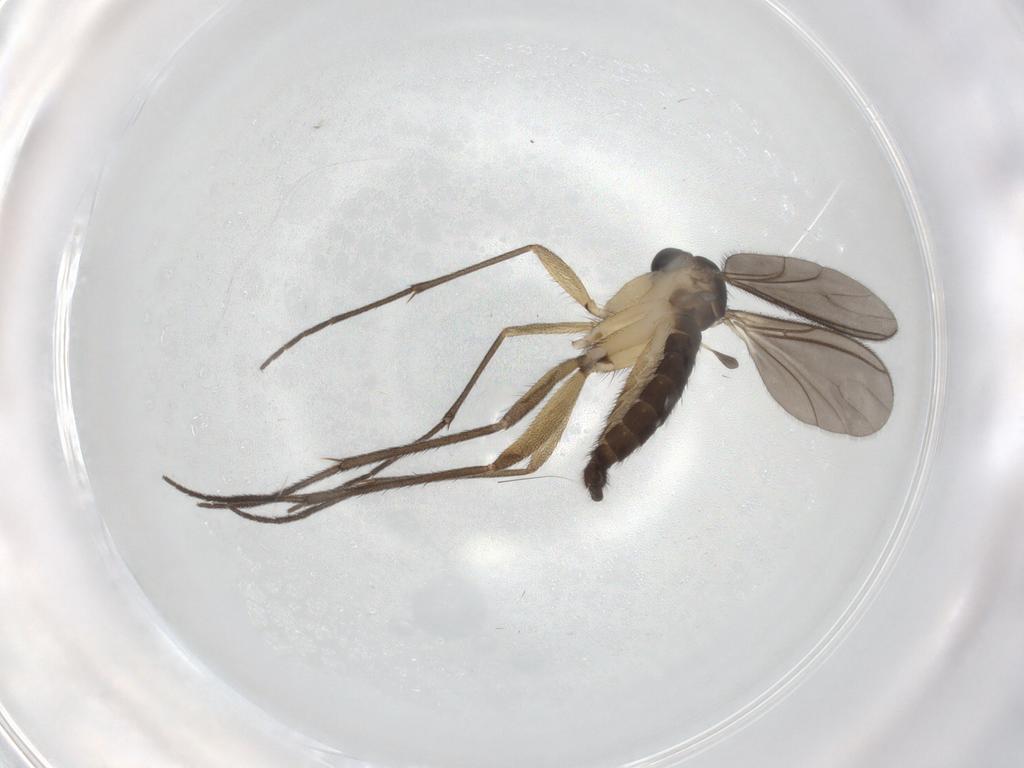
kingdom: Animalia
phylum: Arthropoda
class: Insecta
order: Diptera
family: Sciaridae
